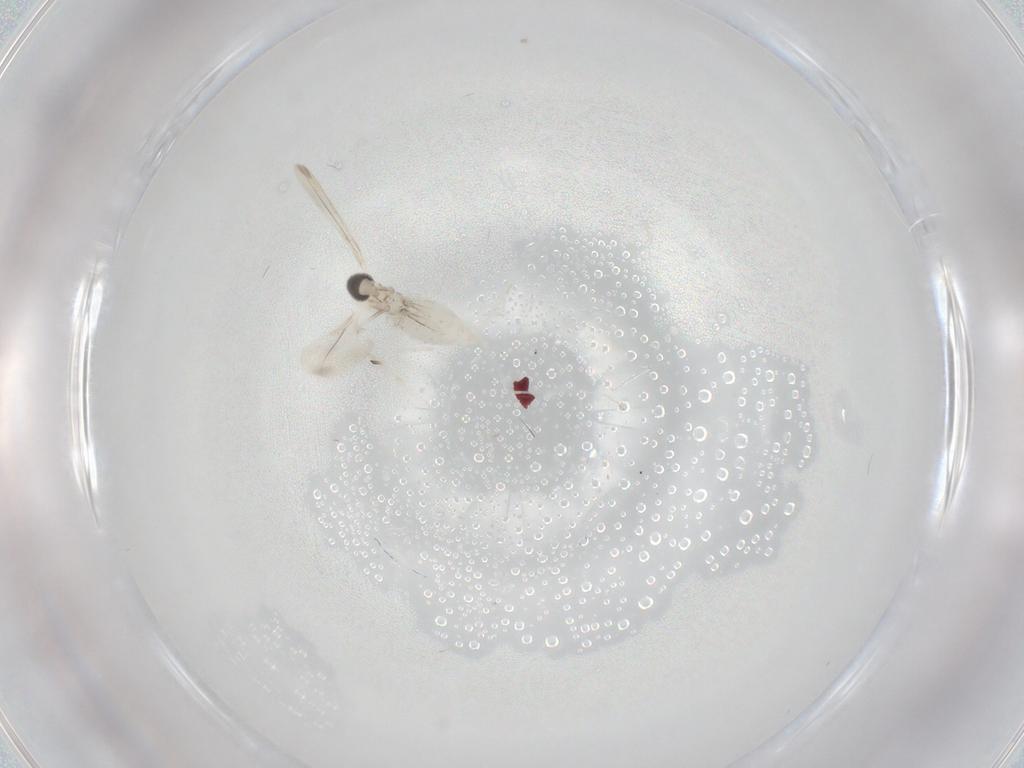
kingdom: Animalia
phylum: Arthropoda
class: Insecta
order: Diptera
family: Cecidomyiidae
